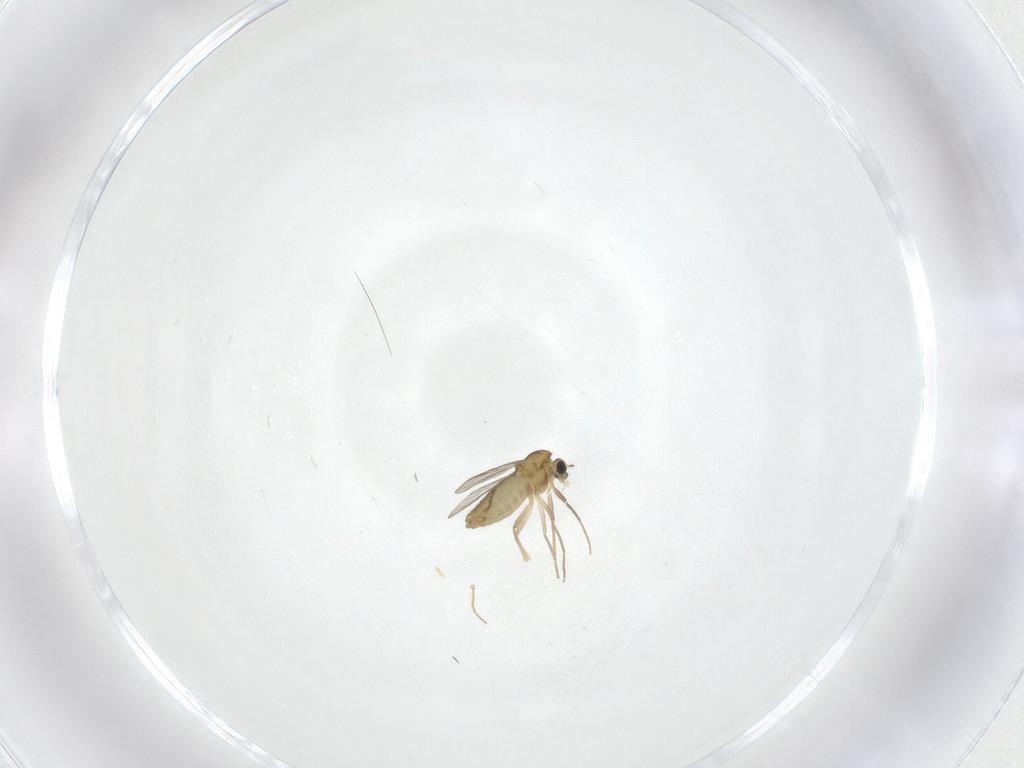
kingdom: Animalia
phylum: Arthropoda
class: Insecta
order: Diptera
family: Chironomidae
